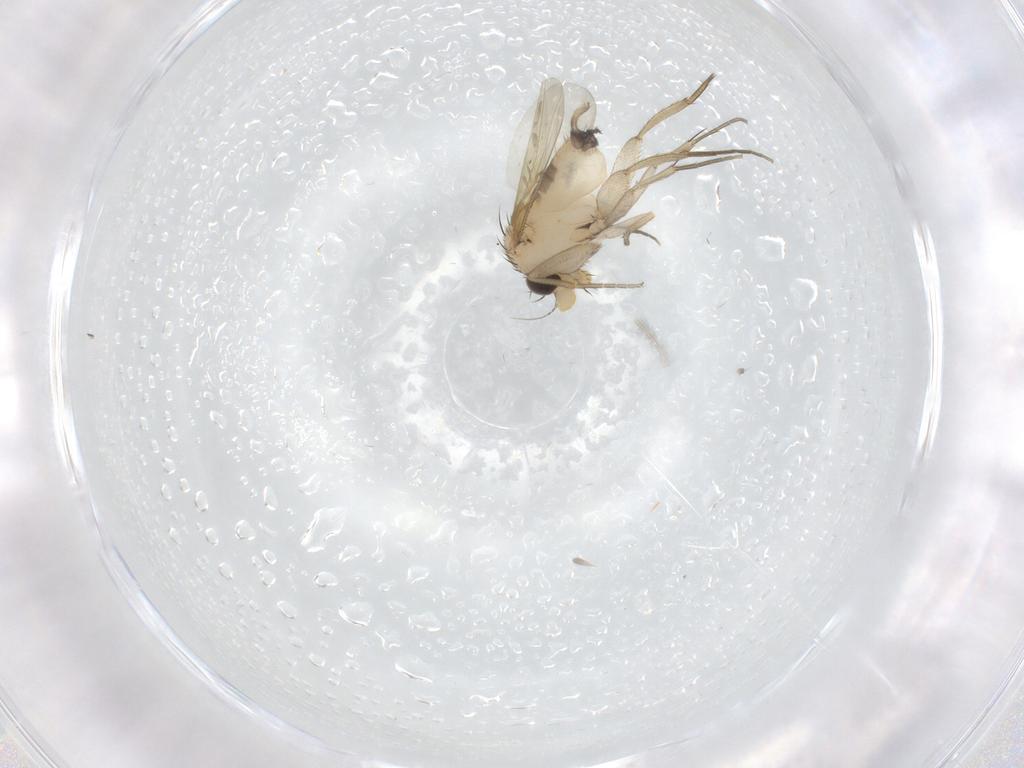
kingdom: Animalia
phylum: Arthropoda
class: Insecta
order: Diptera
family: Phoridae
